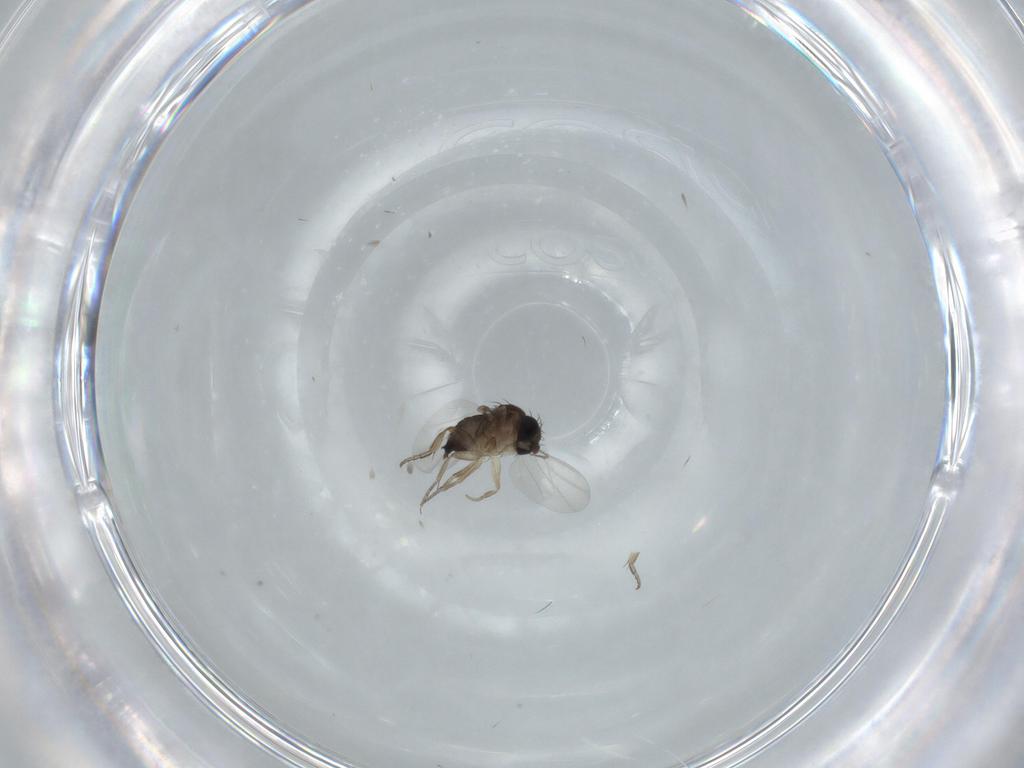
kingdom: Animalia
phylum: Arthropoda
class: Insecta
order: Diptera
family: Phoridae
